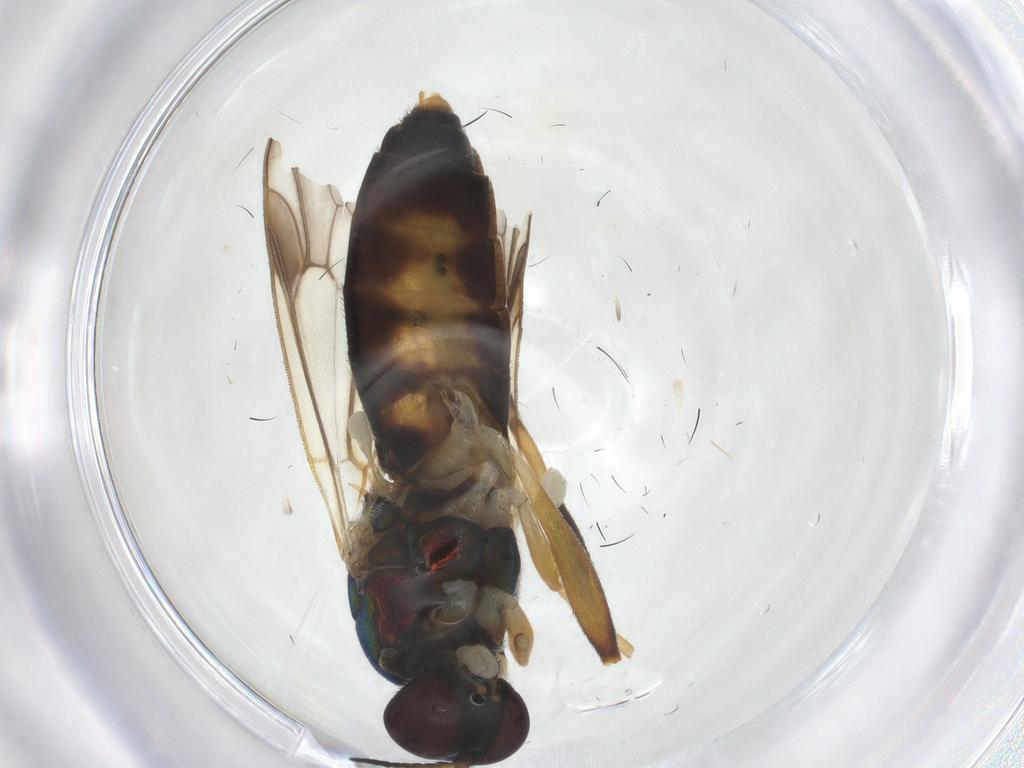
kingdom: Animalia
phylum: Arthropoda
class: Insecta
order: Diptera
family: Stratiomyidae
